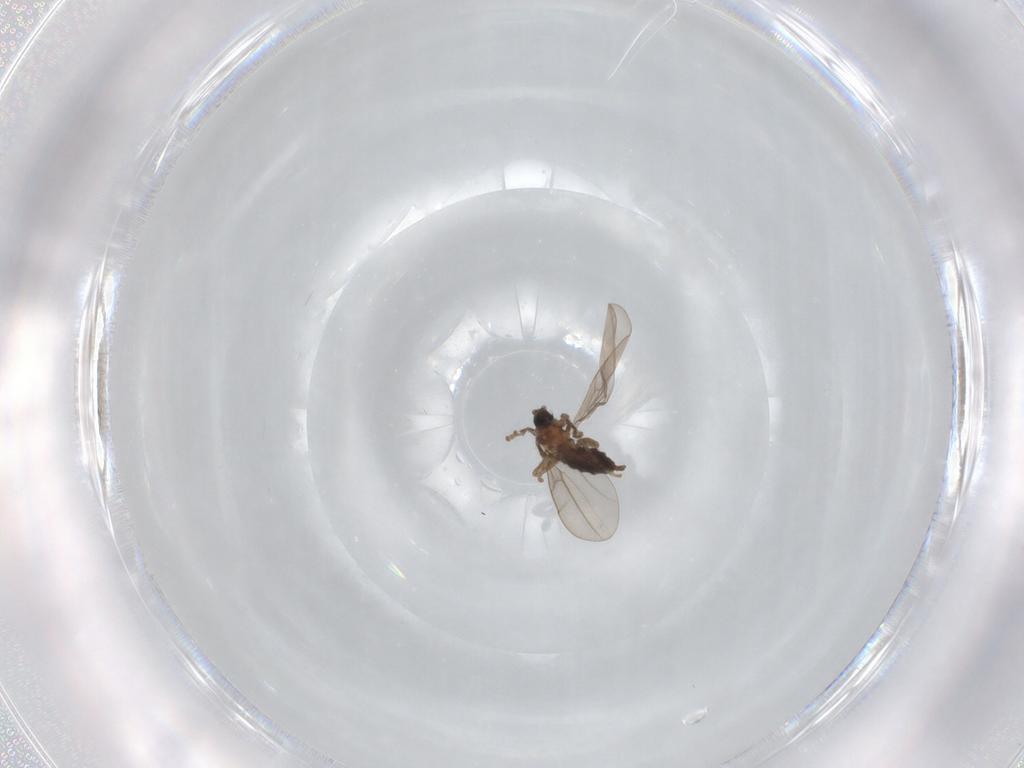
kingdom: Animalia
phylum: Arthropoda
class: Insecta
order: Diptera
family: Cecidomyiidae
